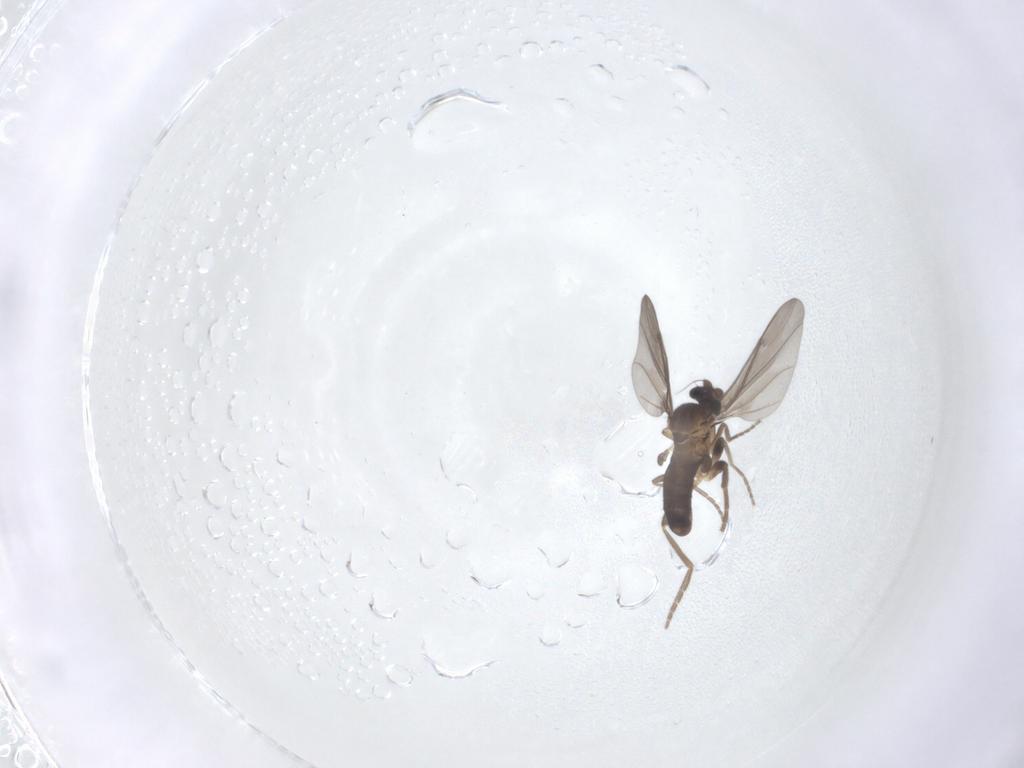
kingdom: Animalia
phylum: Arthropoda
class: Insecta
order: Diptera
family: Phoridae
